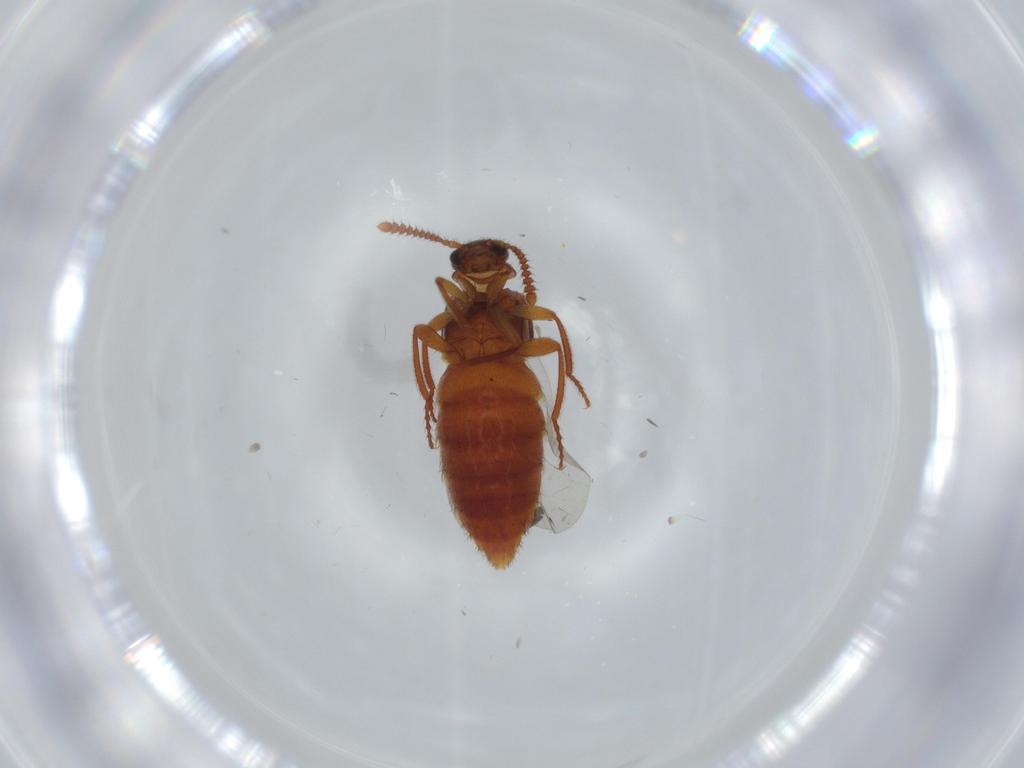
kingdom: Animalia
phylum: Arthropoda
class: Insecta
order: Coleoptera
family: Staphylinidae
